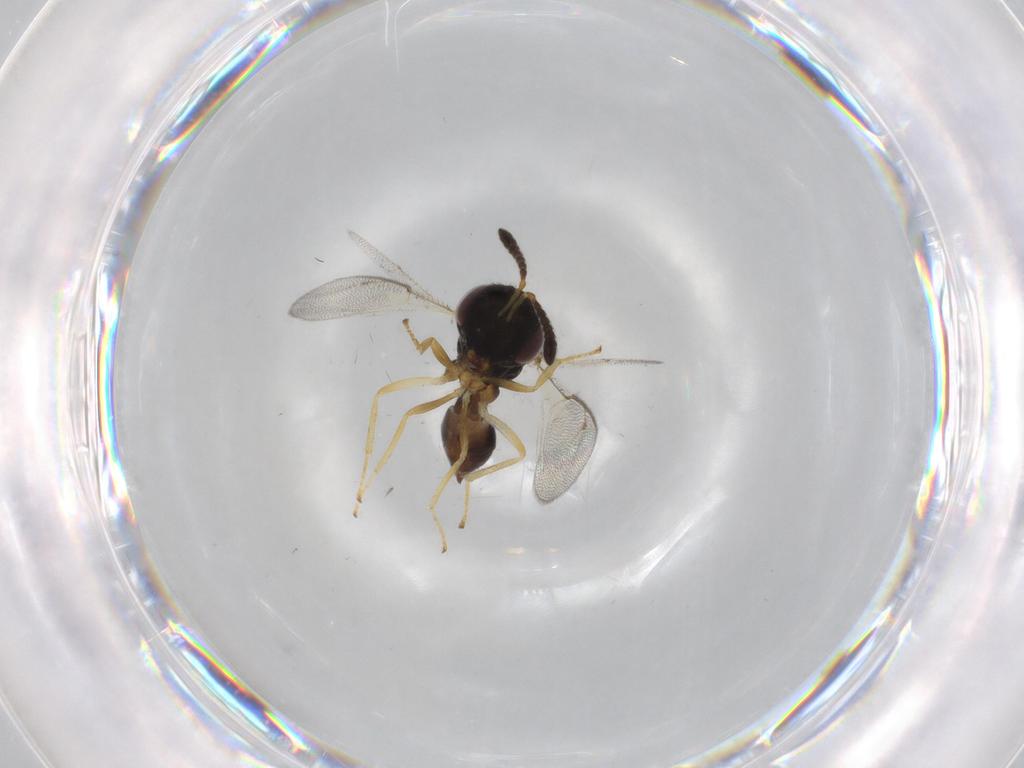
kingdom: Animalia
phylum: Arthropoda
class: Insecta
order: Hymenoptera
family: Pteromalidae
